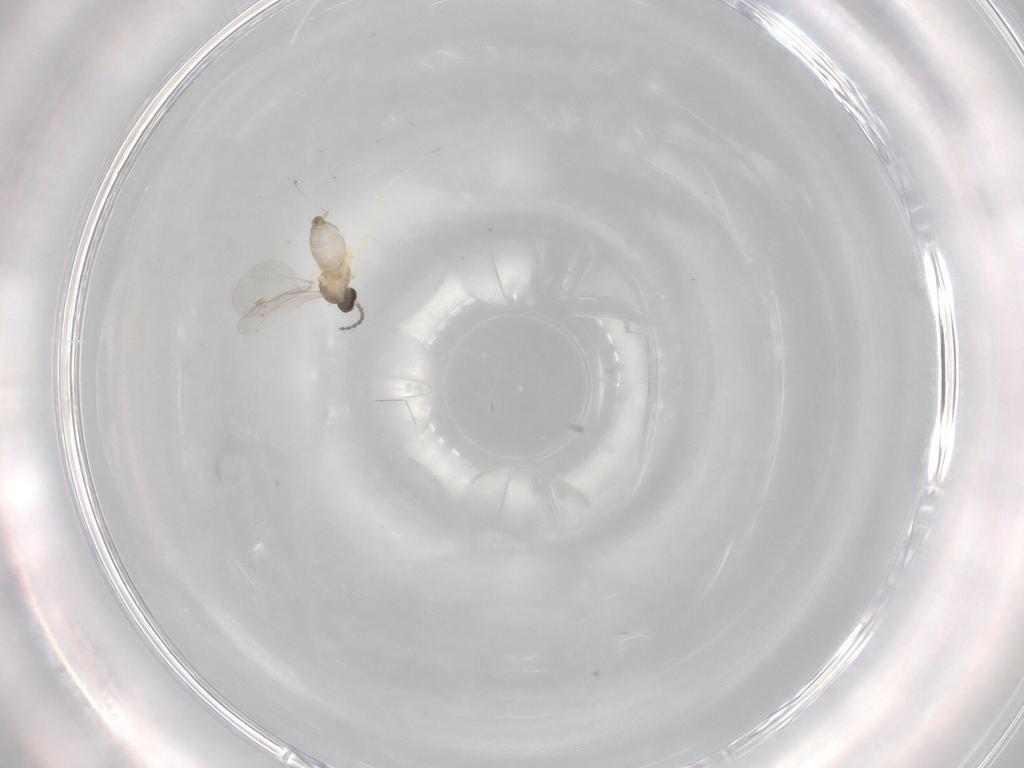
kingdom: Animalia
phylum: Arthropoda
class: Insecta
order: Diptera
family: Cecidomyiidae
